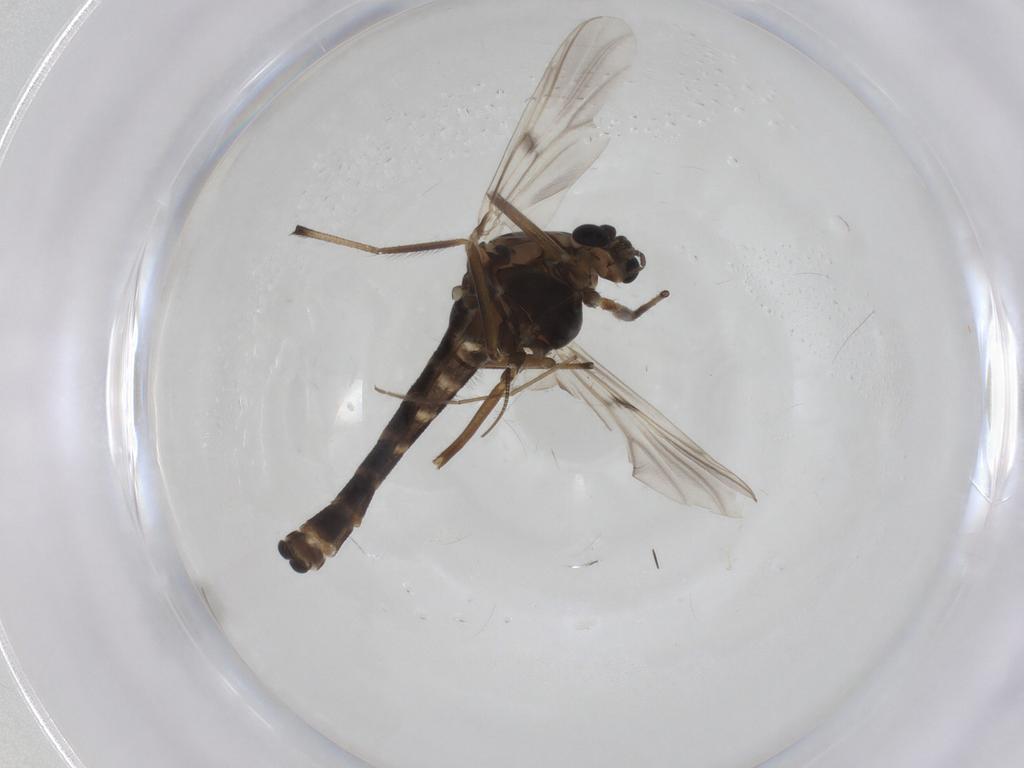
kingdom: Animalia
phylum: Arthropoda
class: Insecta
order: Diptera
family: Chironomidae
